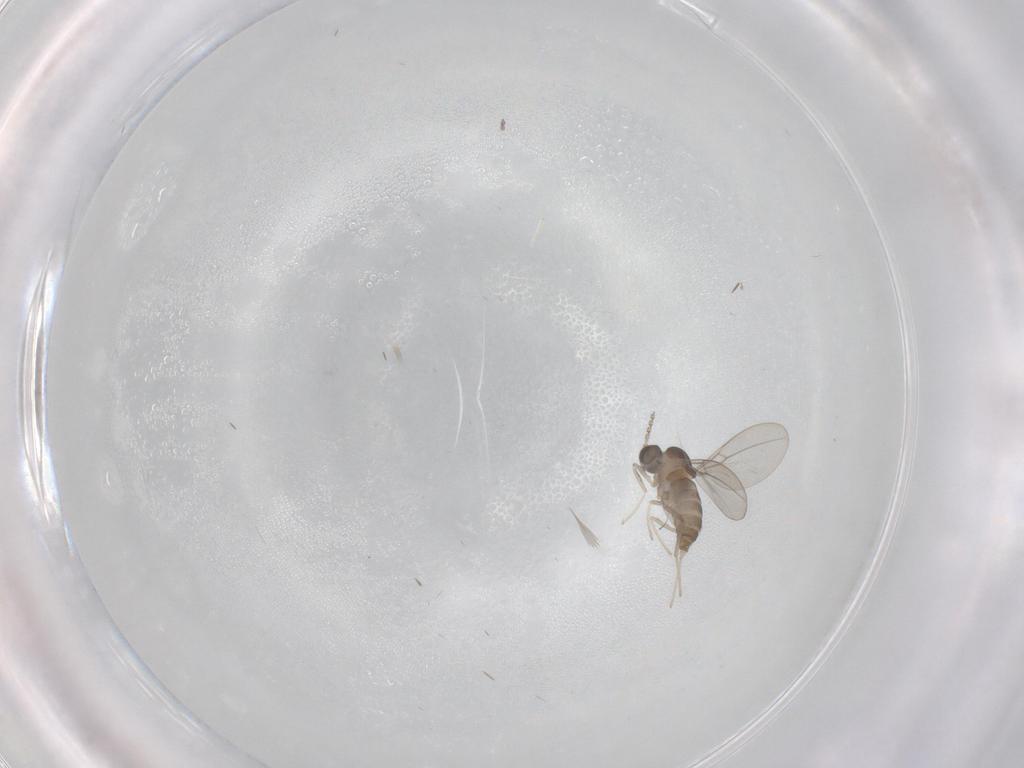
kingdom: Animalia
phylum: Arthropoda
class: Insecta
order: Diptera
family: Cecidomyiidae
